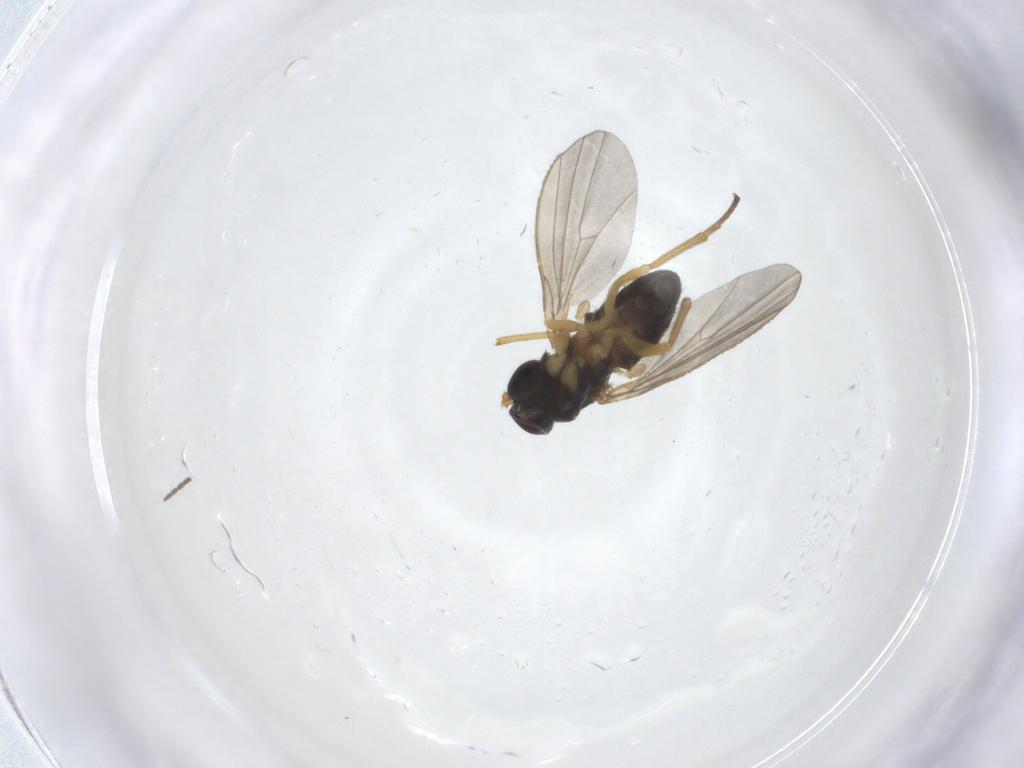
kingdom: Animalia
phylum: Arthropoda
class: Insecta
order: Diptera
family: Dolichopodidae
